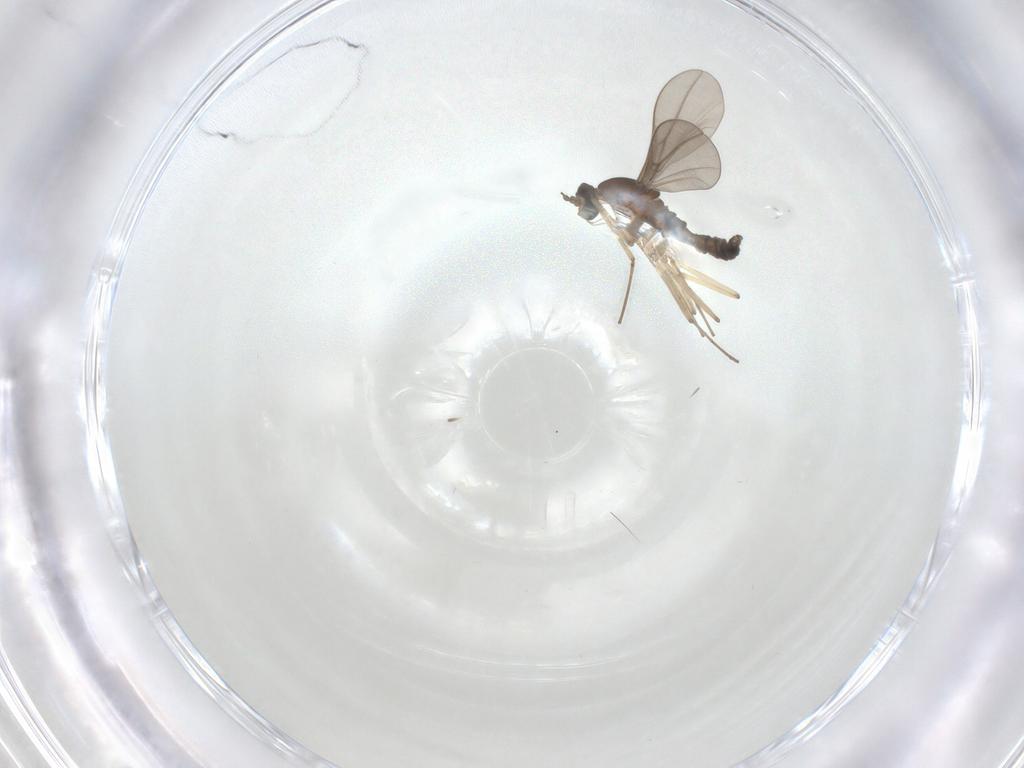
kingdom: Animalia
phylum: Arthropoda
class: Insecta
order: Diptera
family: Cecidomyiidae
